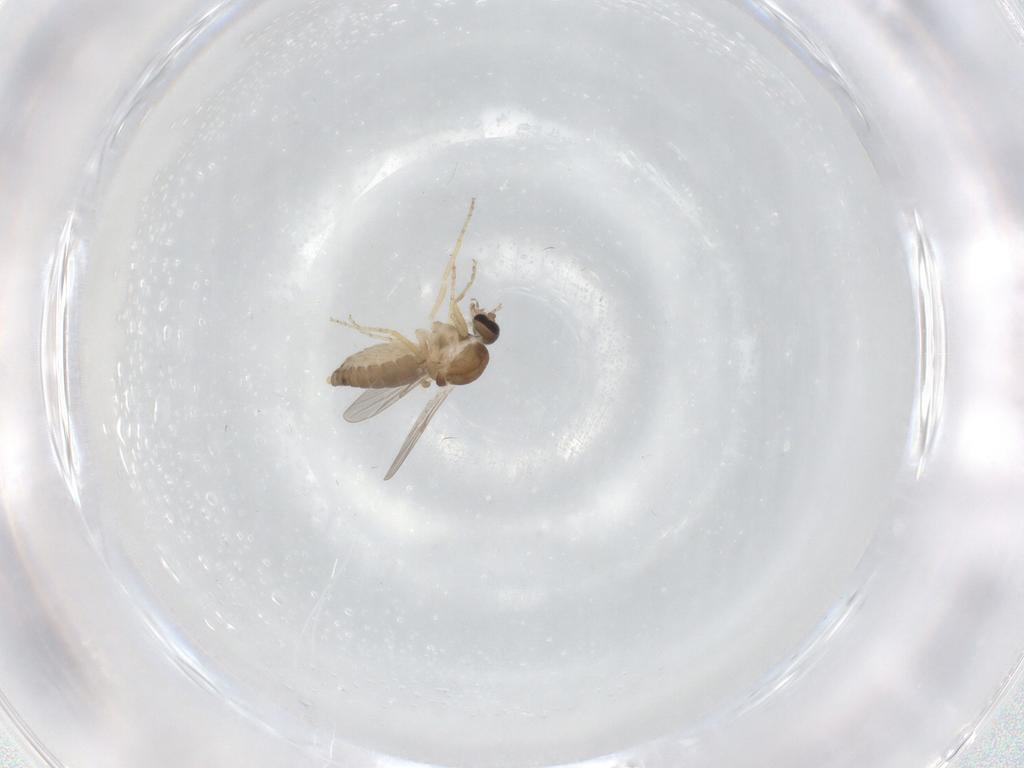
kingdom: Animalia
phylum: Arthropoda
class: Insecta
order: Diptera
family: Ceratopogonidae
